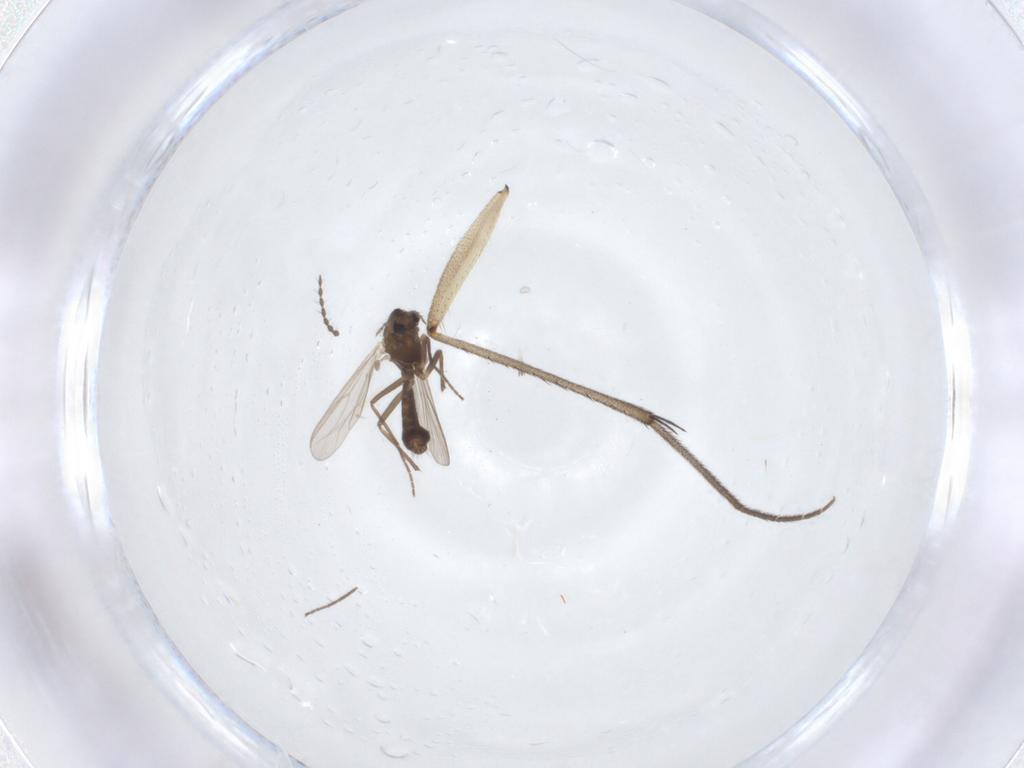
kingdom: Animalia
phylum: Arthropoda
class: Insecta
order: Diptera
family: Chironomidae
